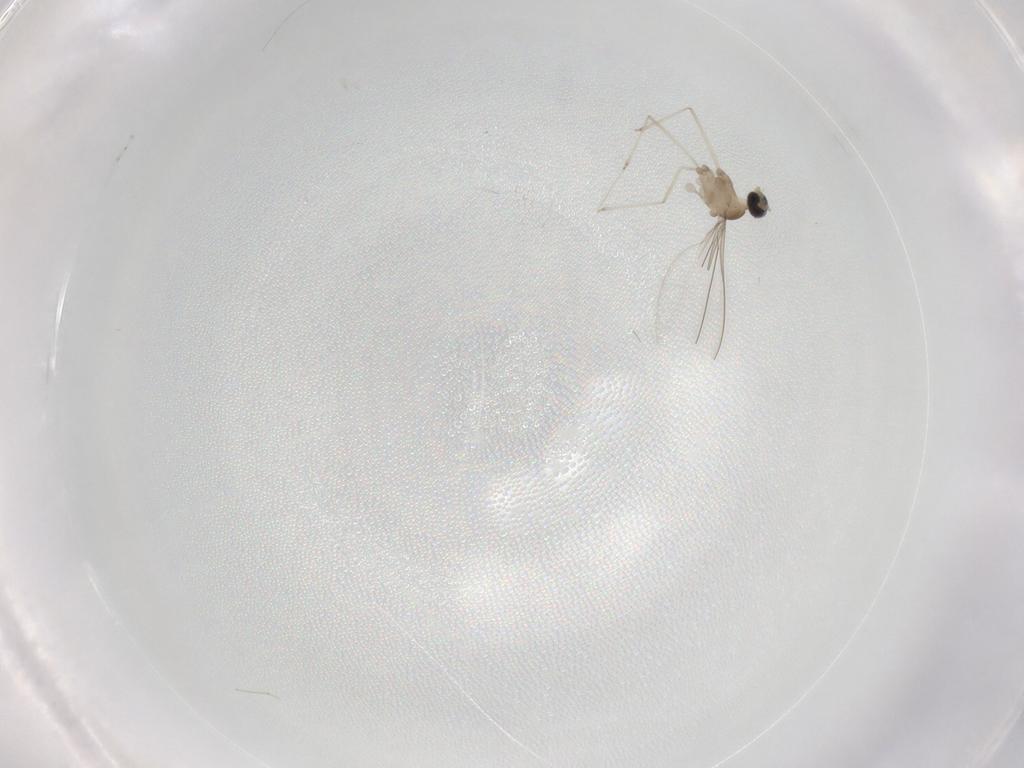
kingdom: Animalia
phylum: Arthropoda
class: Insecta
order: Diptera
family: Cecidomyiidae
